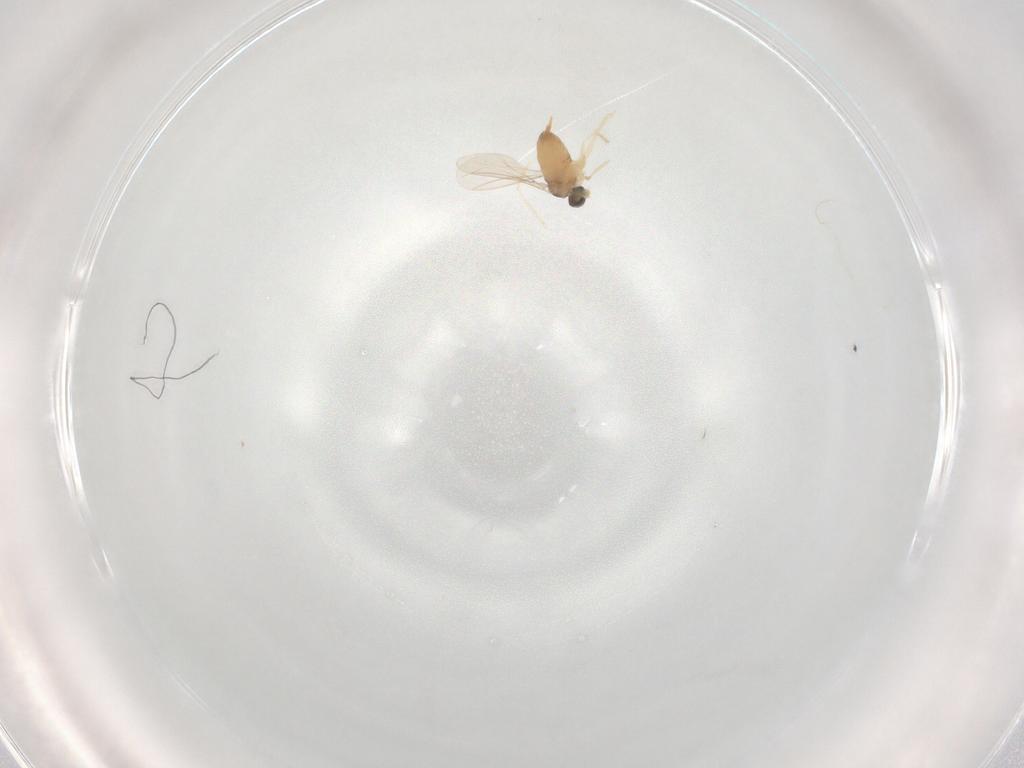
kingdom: Animalia
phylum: Arthropoda
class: Insecta
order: Diptera
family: Cecidomyiidae
